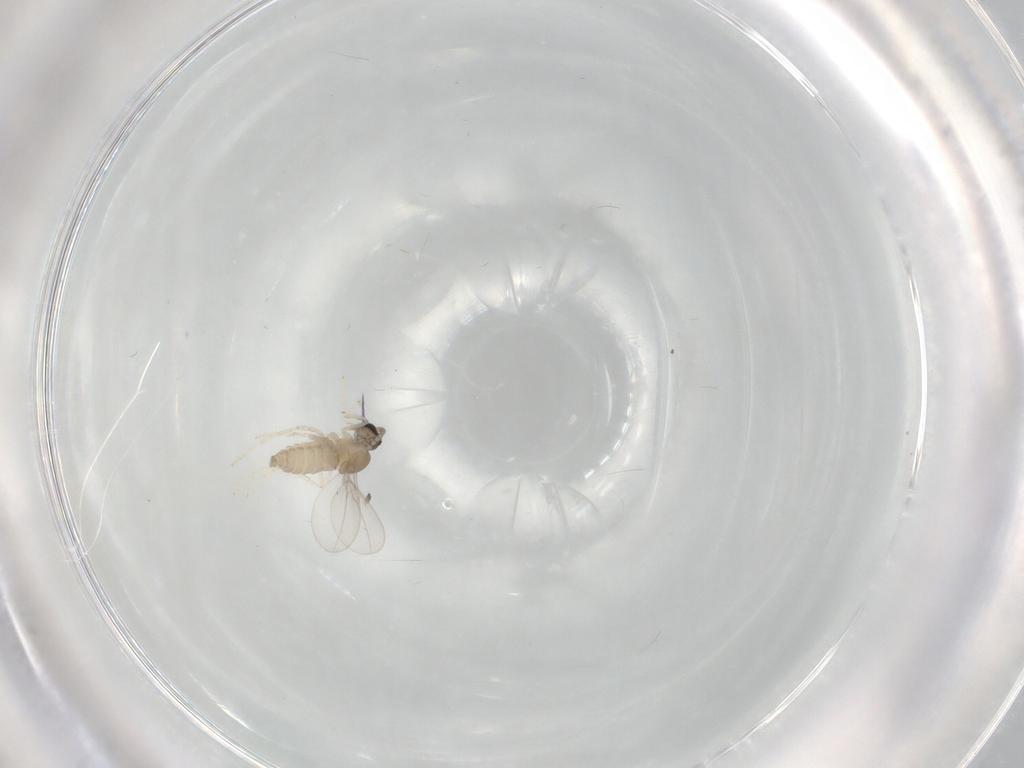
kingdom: Animalia
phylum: Arthropoda
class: Insecta
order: Diptera
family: Cecidomyiidae
